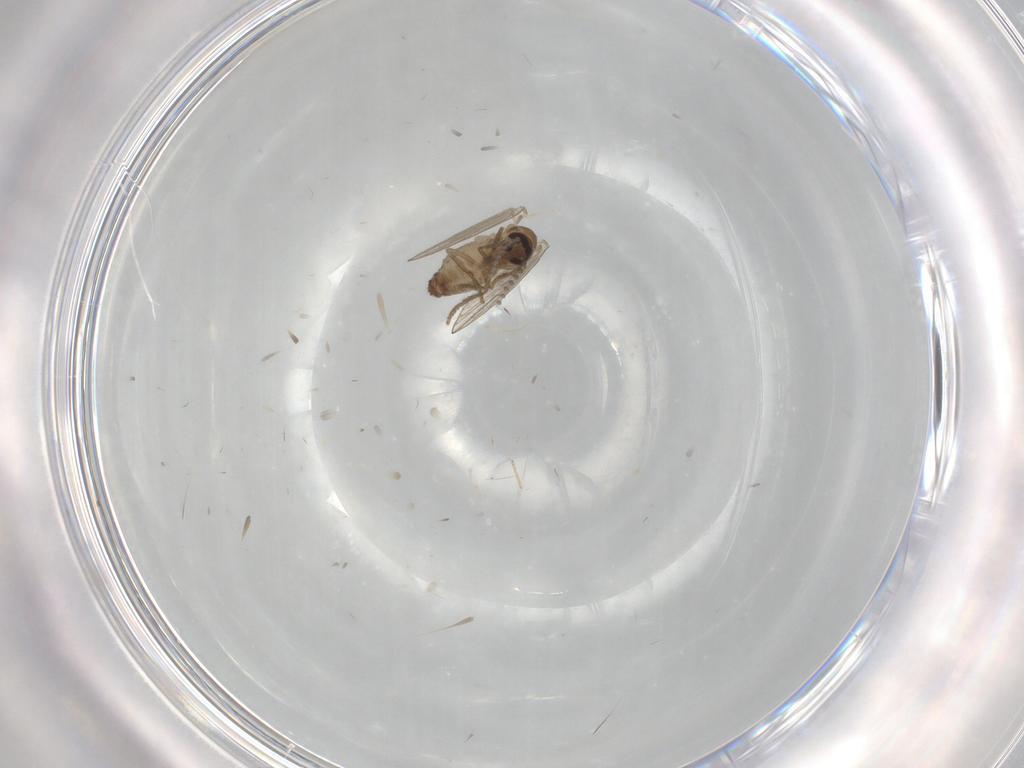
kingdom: Animalia
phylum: Arthropoda
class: Insecta
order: Diptera
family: Psychodidae
